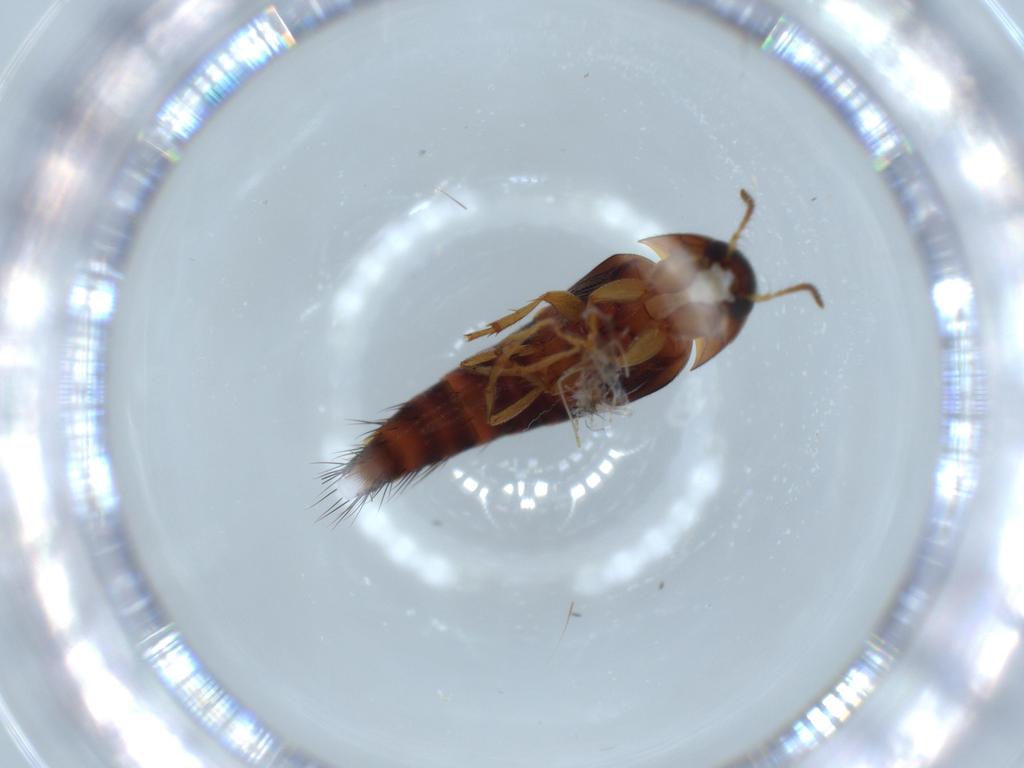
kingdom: Animalia
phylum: Arthropoda
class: Insecta
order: Coleoptera
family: Staphylinidae
